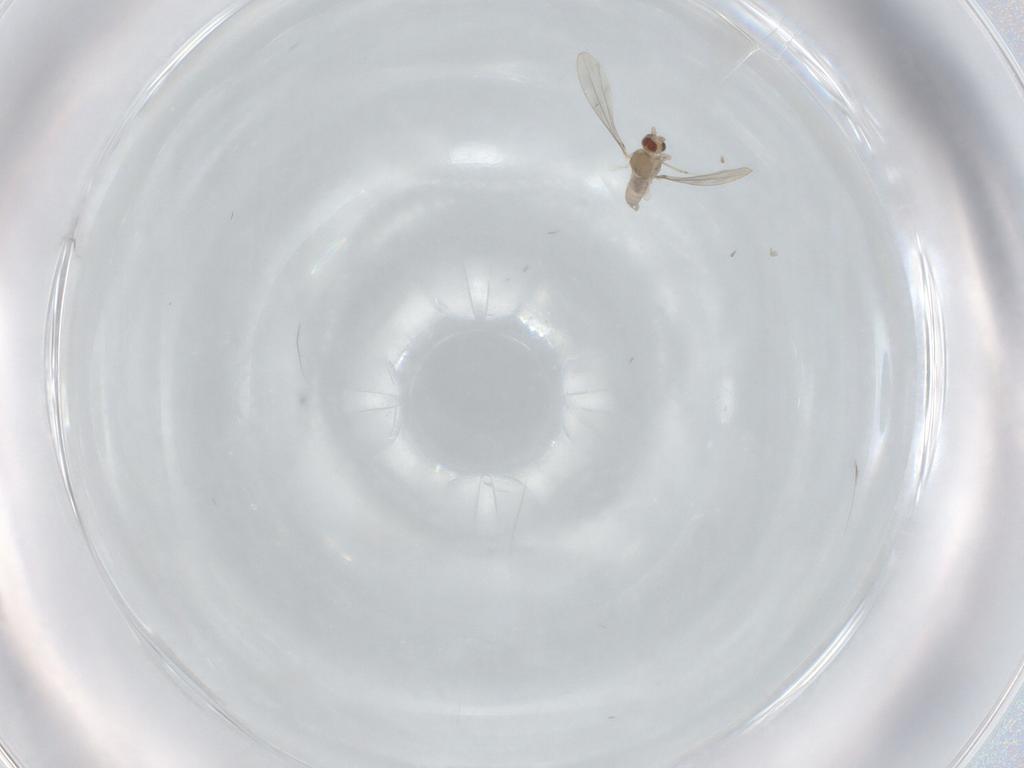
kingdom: Animalia
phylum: Arthropoda
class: Insecta
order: Diptera
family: Cecidomyiidae
